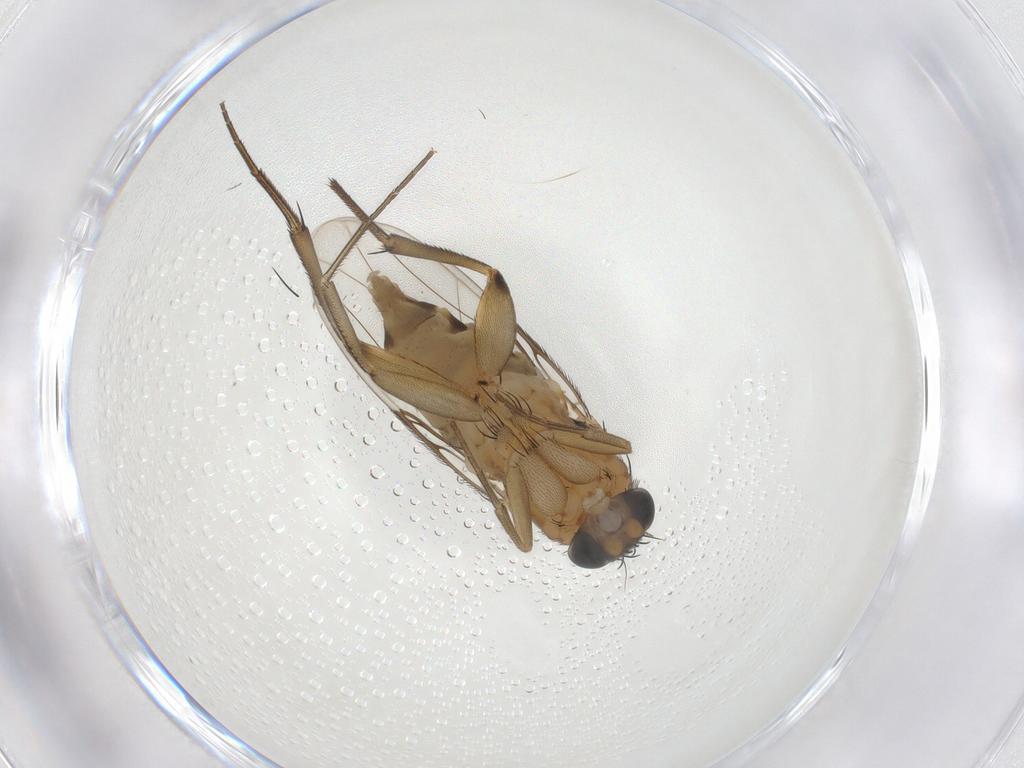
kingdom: Animalia
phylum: Arthropoda
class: Insecta
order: Diptera
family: Phoridae
